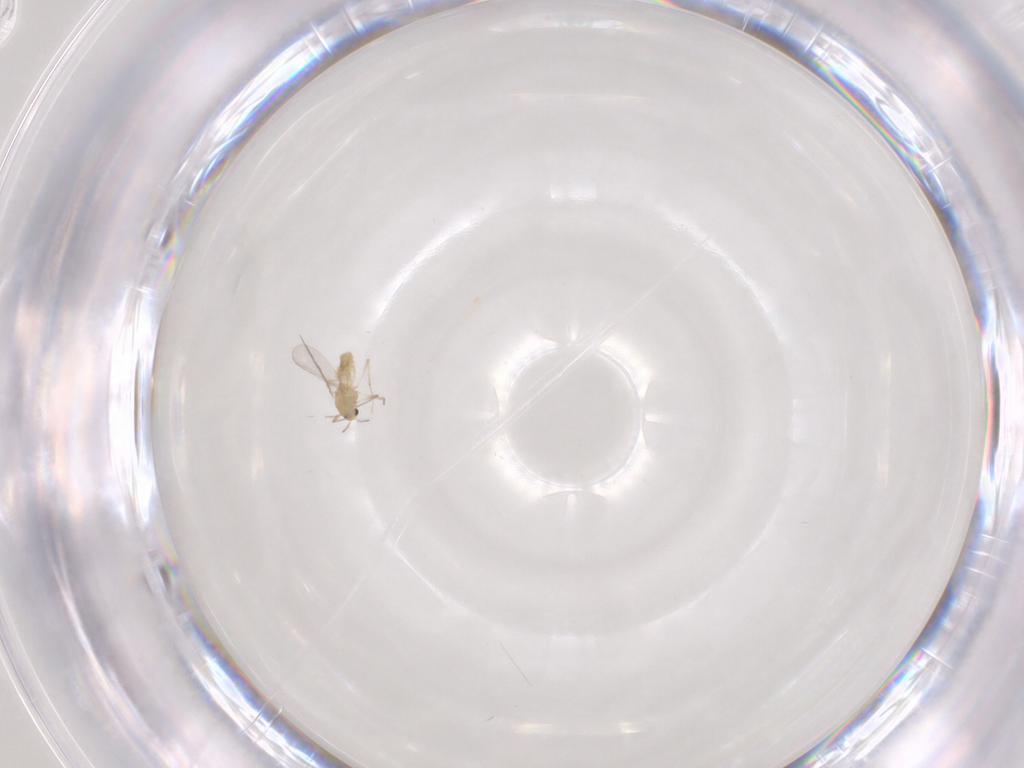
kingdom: Animalia
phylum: Arthropoda
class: Insecta
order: Diptera
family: Chironomidae
